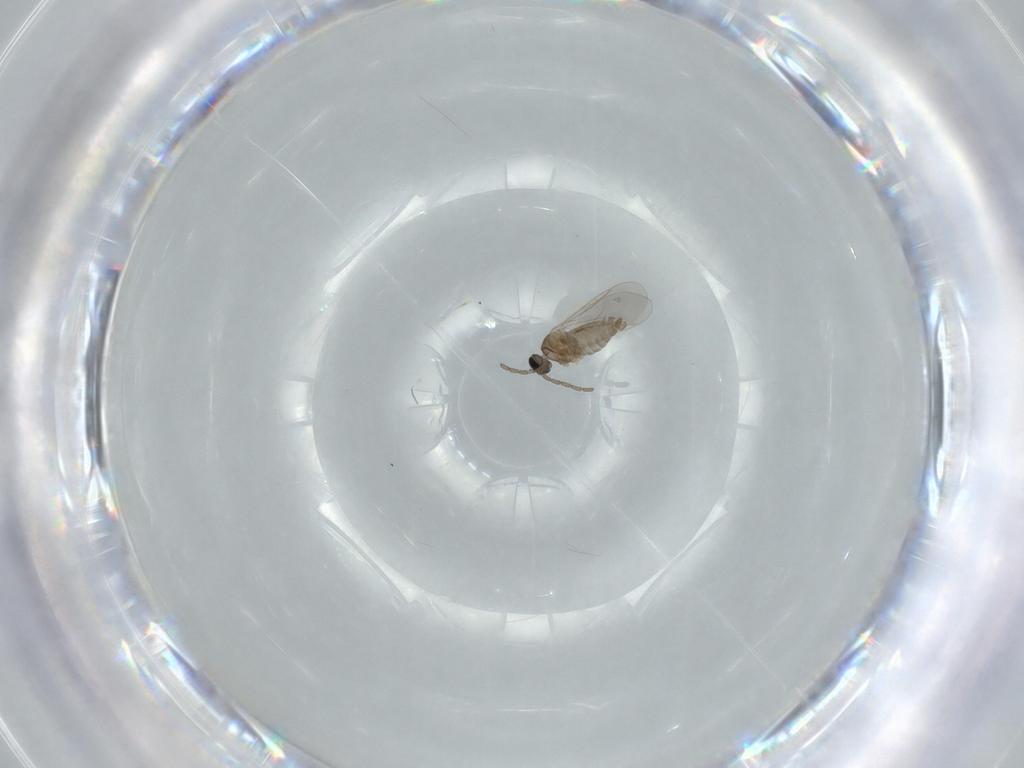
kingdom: Animalia
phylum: Arthropoda
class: Insecta
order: Diptera
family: Cecidomyiidae
